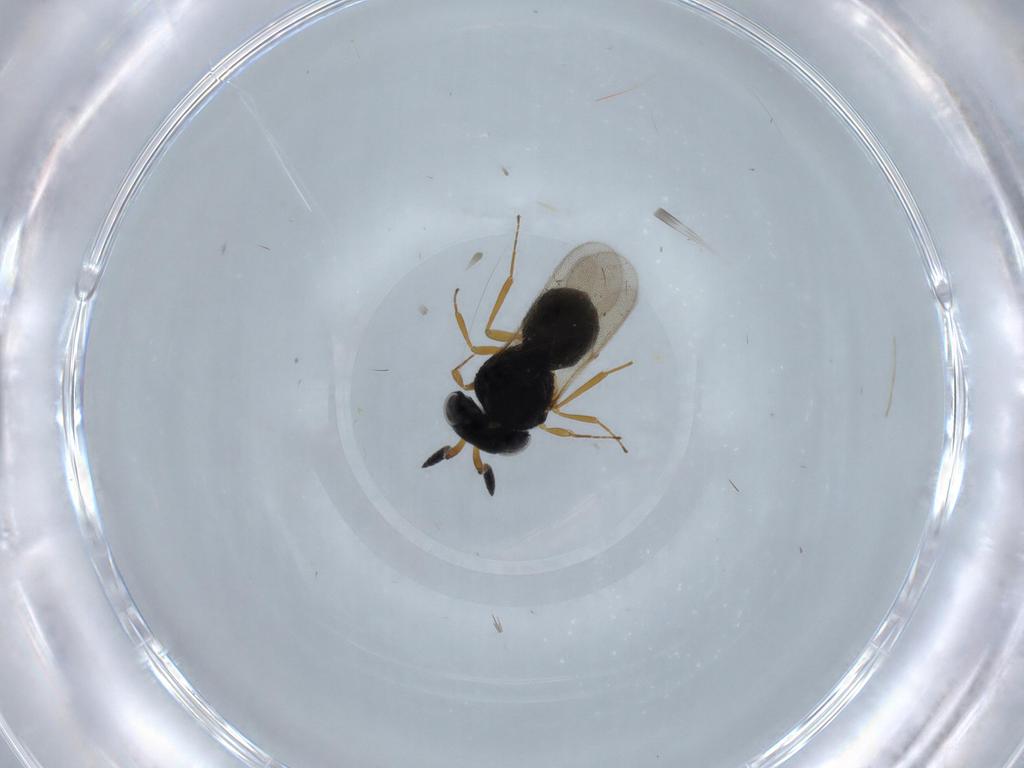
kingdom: Animalia
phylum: Arthropoda
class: Insecta
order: Hymenoptera
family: Scelionidae
